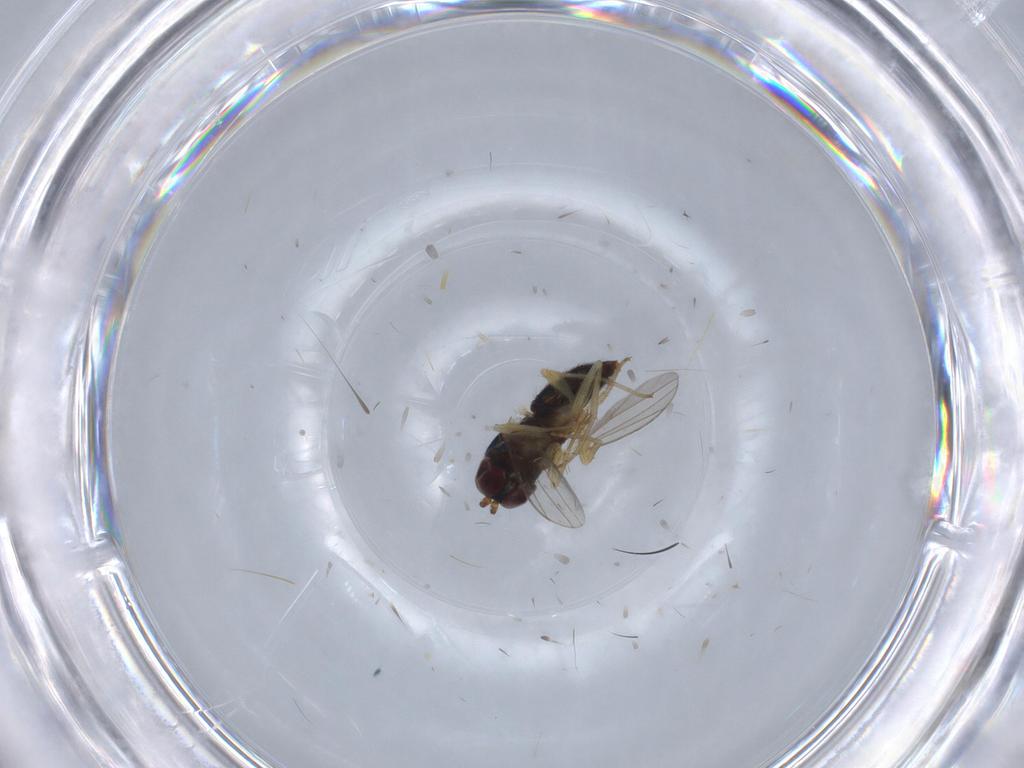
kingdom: Animalia
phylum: Arthropoda
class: Insecta
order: Diptera
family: Dolichopodidae
